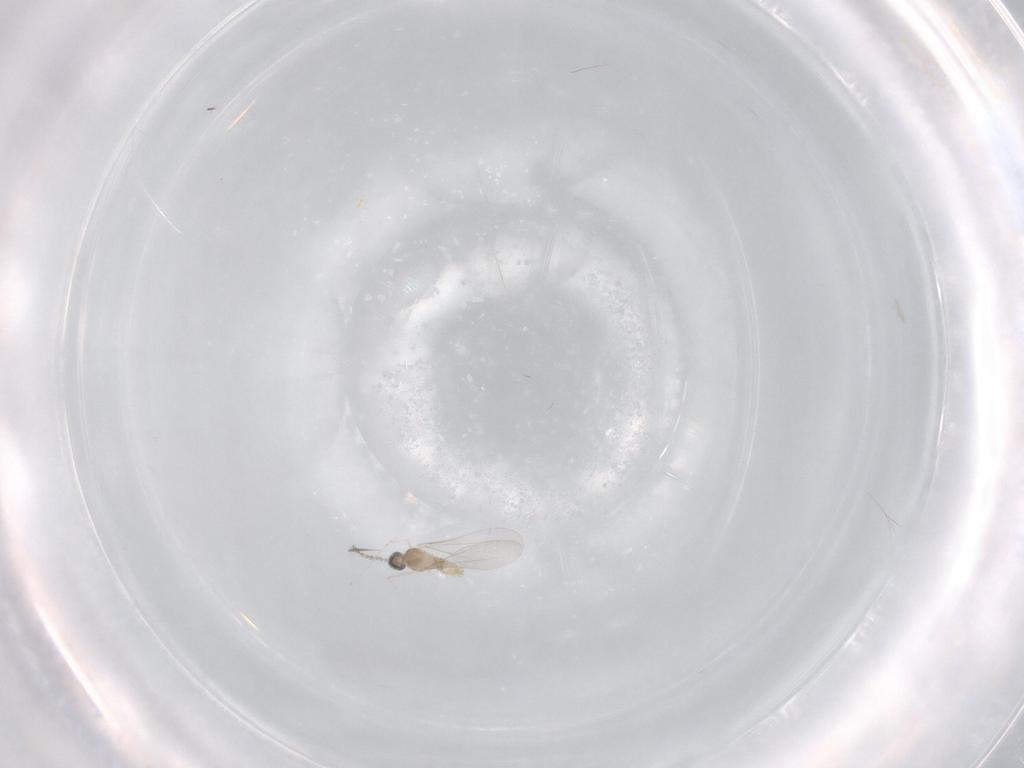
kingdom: Animalia
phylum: Arthropoda
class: Insecta
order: Diptera
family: Cecidomyiidae
